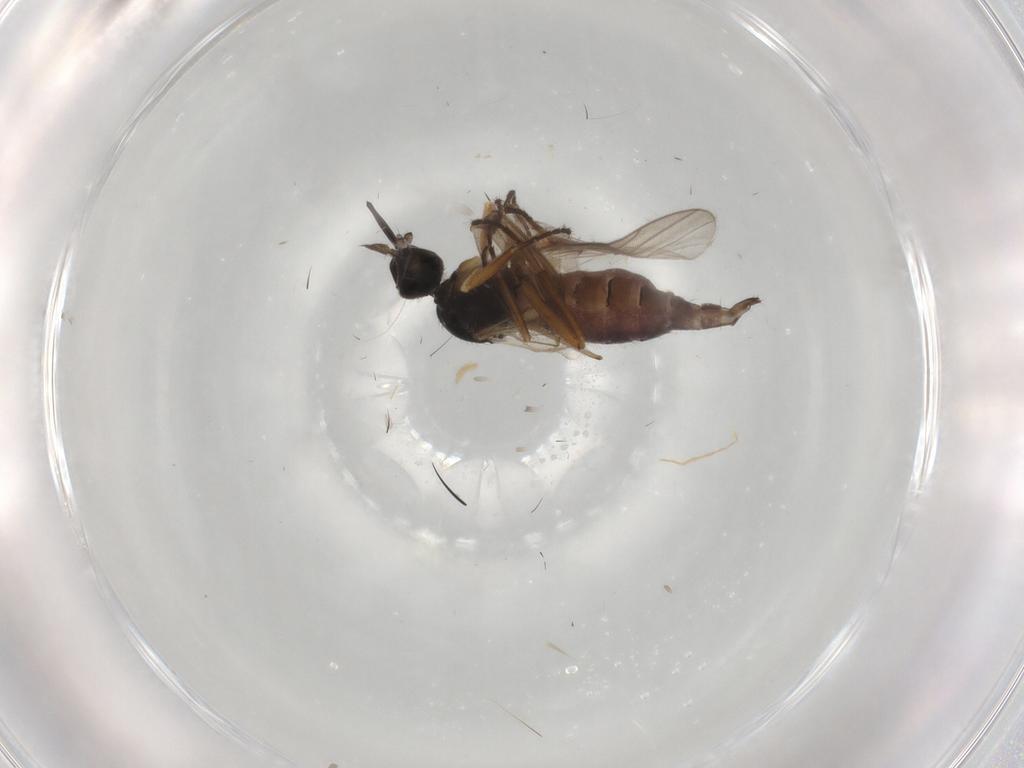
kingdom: Animalia
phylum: Arthropoda
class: Insecta
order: Diptera
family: Hybotidae
